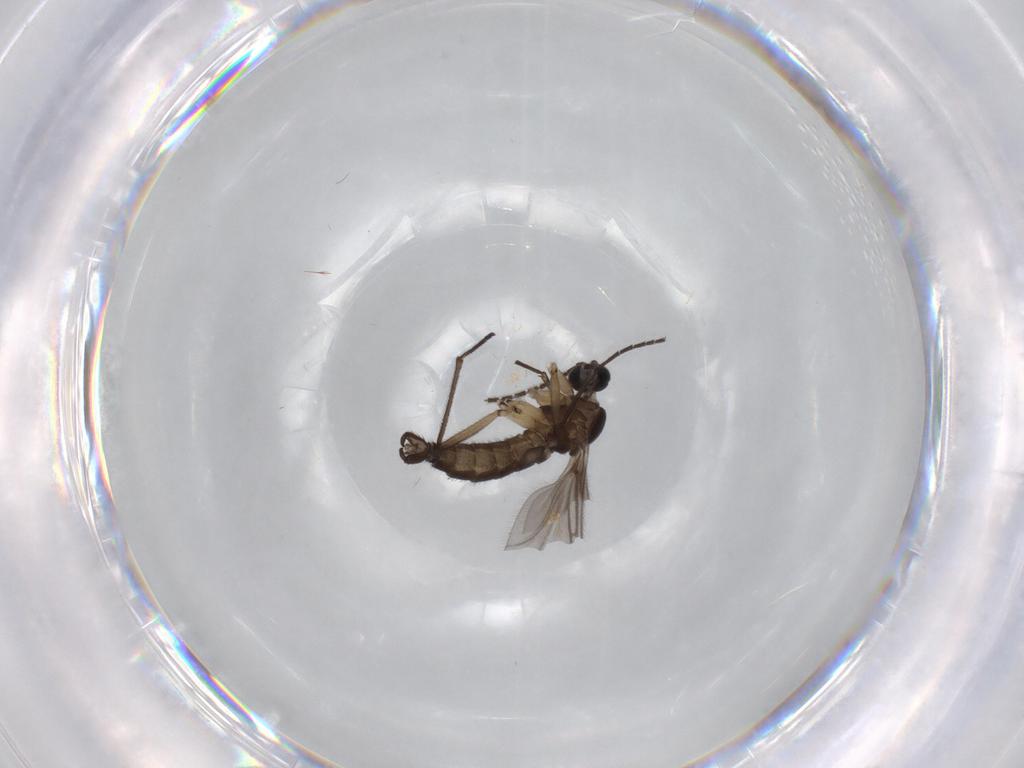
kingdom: Animalia
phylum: Arthropoda
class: Insecta
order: Diptera
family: Sciaridae
